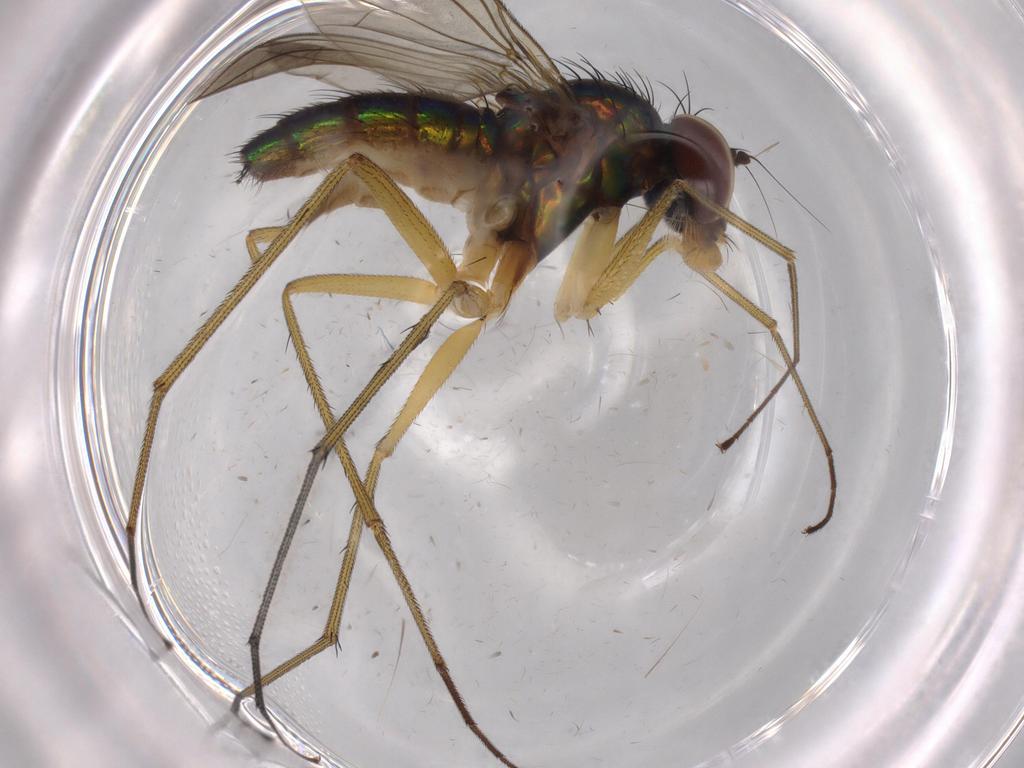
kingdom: Animalia
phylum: Arthropoda
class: Insecta
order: Diptera
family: Dolichopodidae
